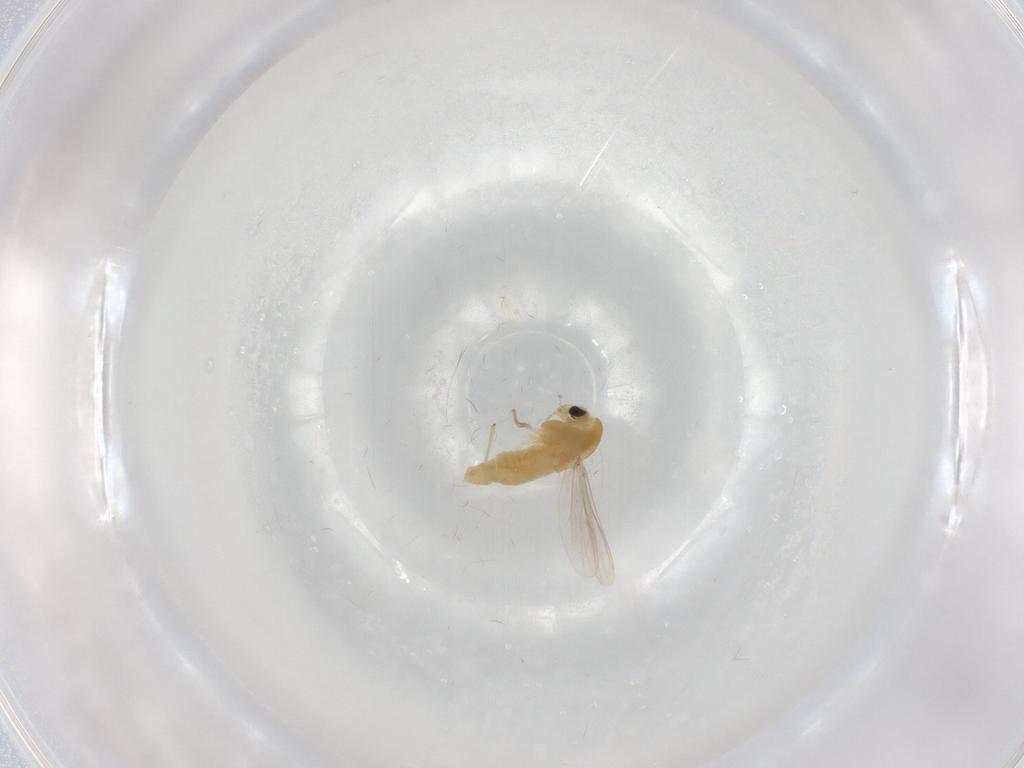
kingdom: Animalia
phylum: Arthropoda
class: Insecta
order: Diptera
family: Chironomidae
